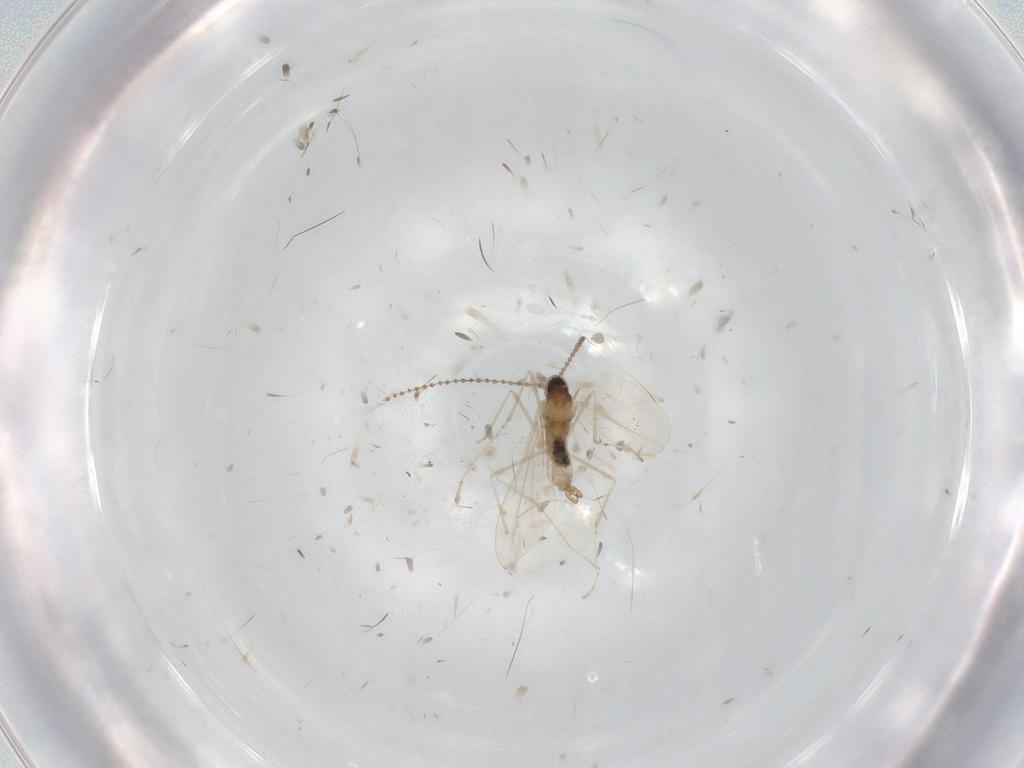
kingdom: Animalia
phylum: Arthropoda
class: Insecta
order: Diptera
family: Cecidomyiidae
